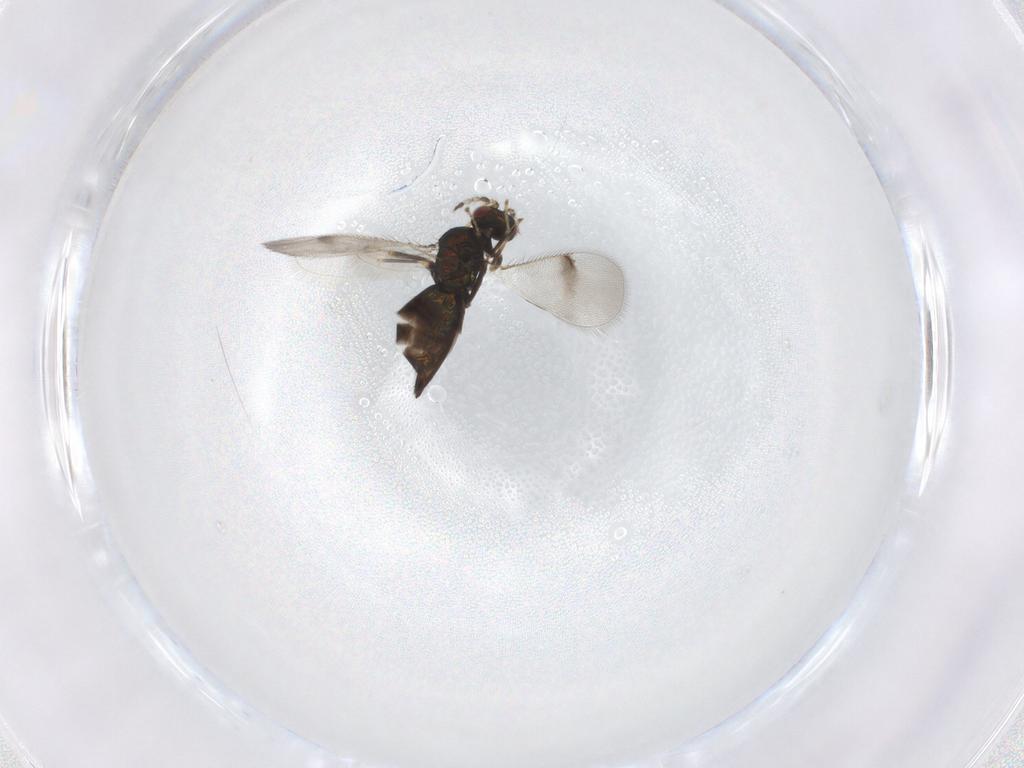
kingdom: Animalia
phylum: Arthropoda
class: Insecta
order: Hymenoptera
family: Eulophidae
